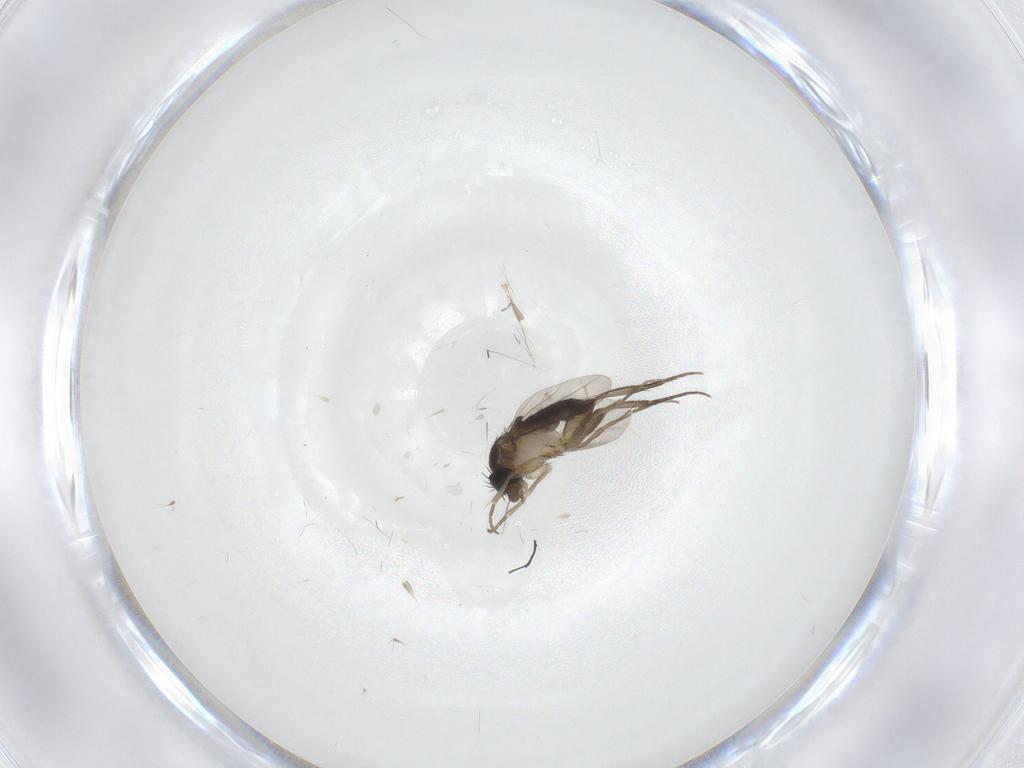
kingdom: Animalia
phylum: Arthropoda
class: Insecta
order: Diptera
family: Phoridae
